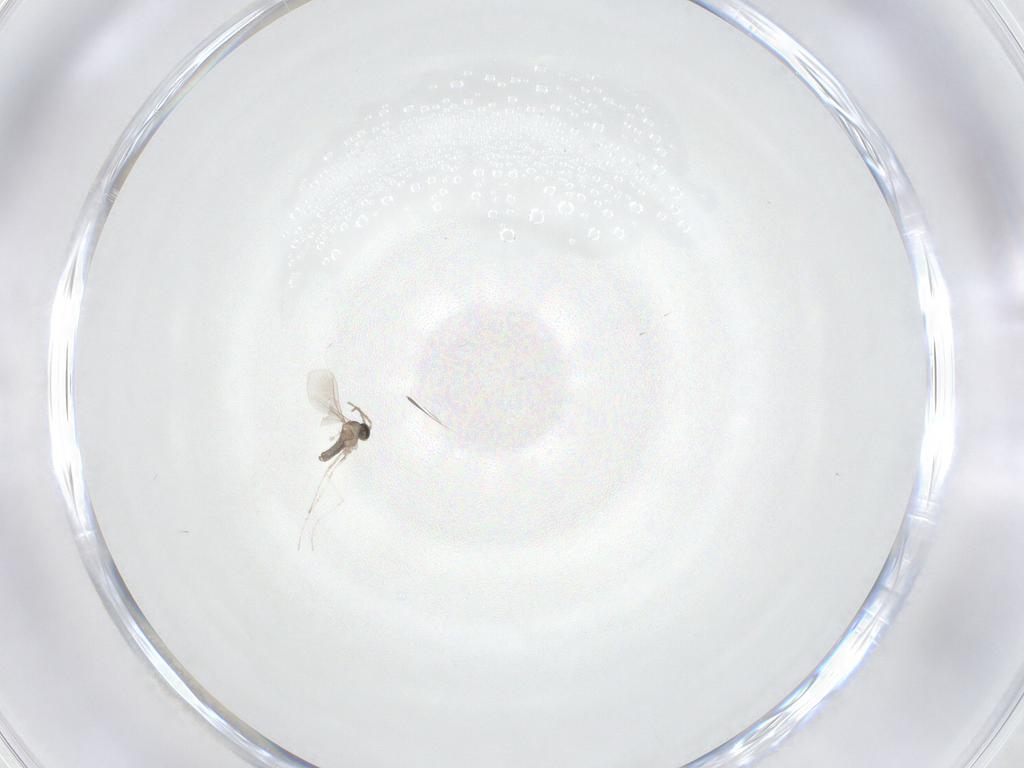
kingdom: Animalia
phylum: Arthropoda
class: Insecta
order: Diptera
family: Cecidomyiidae
